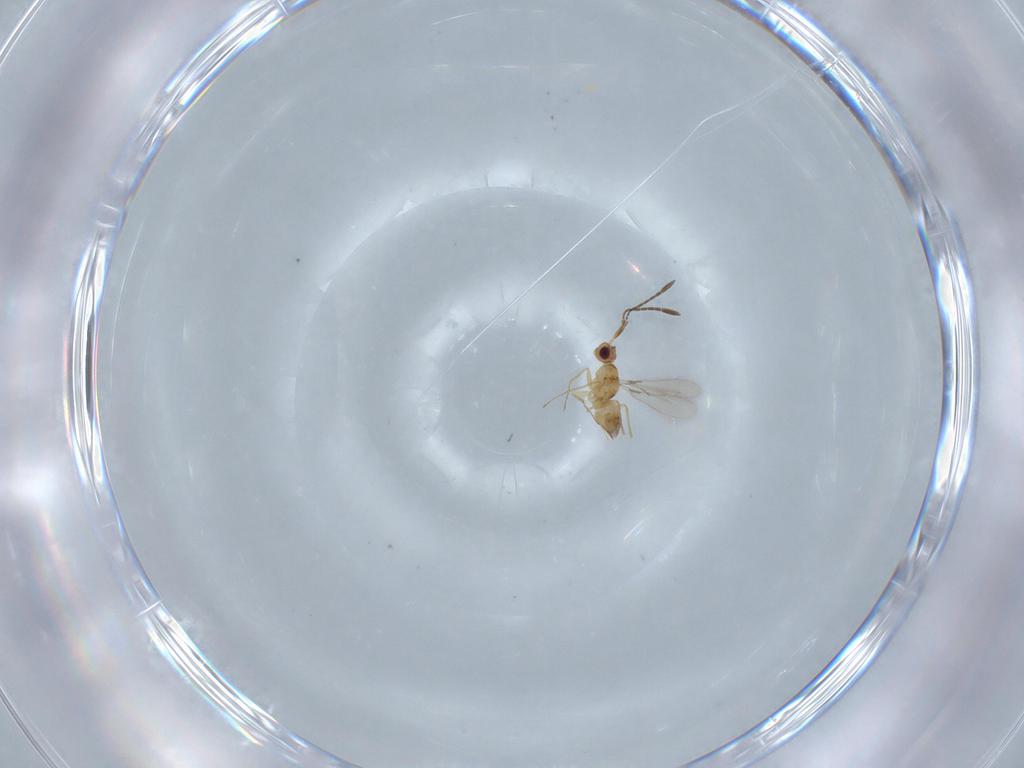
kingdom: Animalia
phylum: Arthropoda
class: Insecta
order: Hymenoptera
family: Mymaridae
